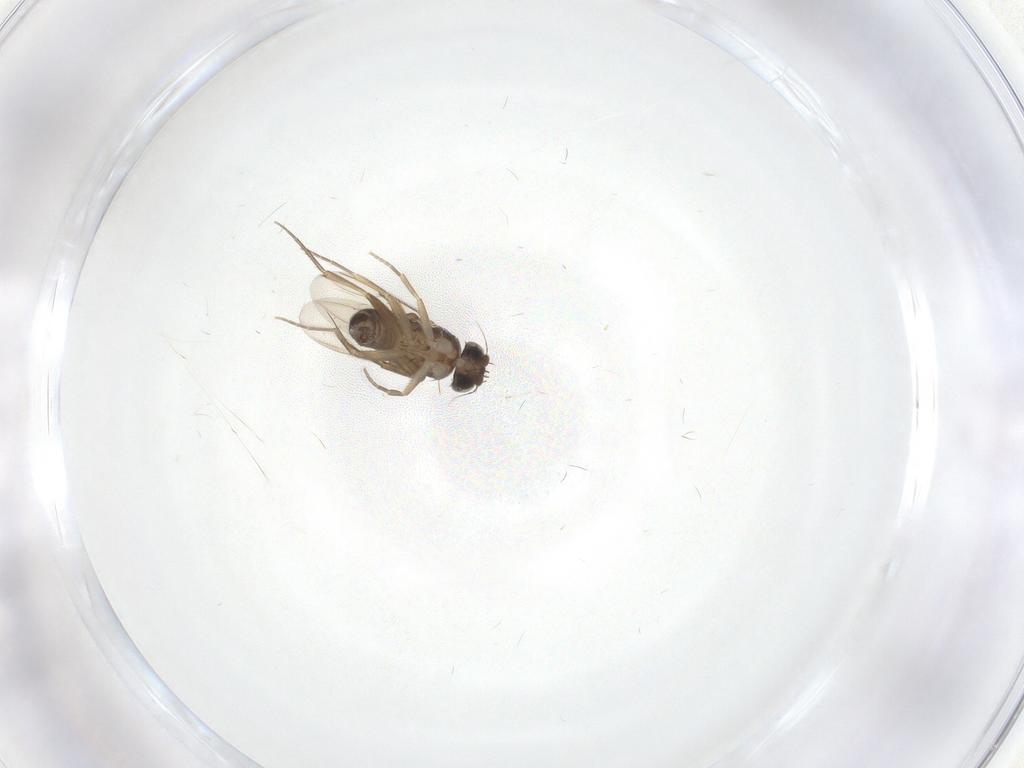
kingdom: Animalia
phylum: Arthropoda
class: Insecta
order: Diptera
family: Phoridae
